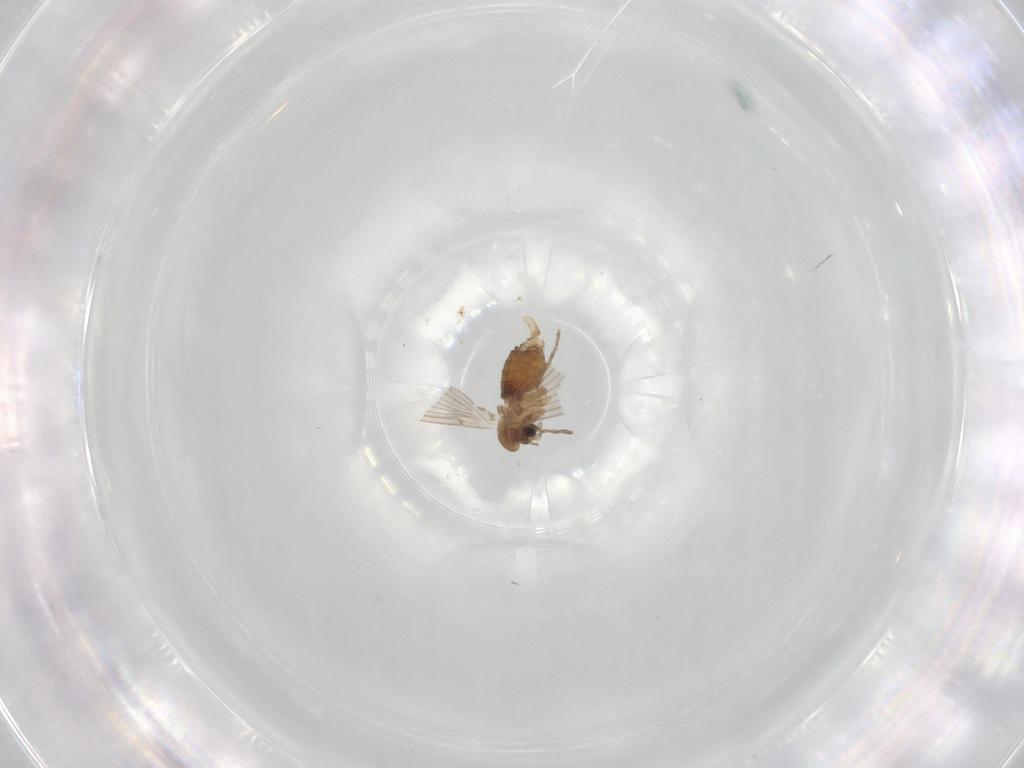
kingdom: Animalia
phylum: Arthropoda
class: Insecta
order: Diptera
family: Psychodidae
